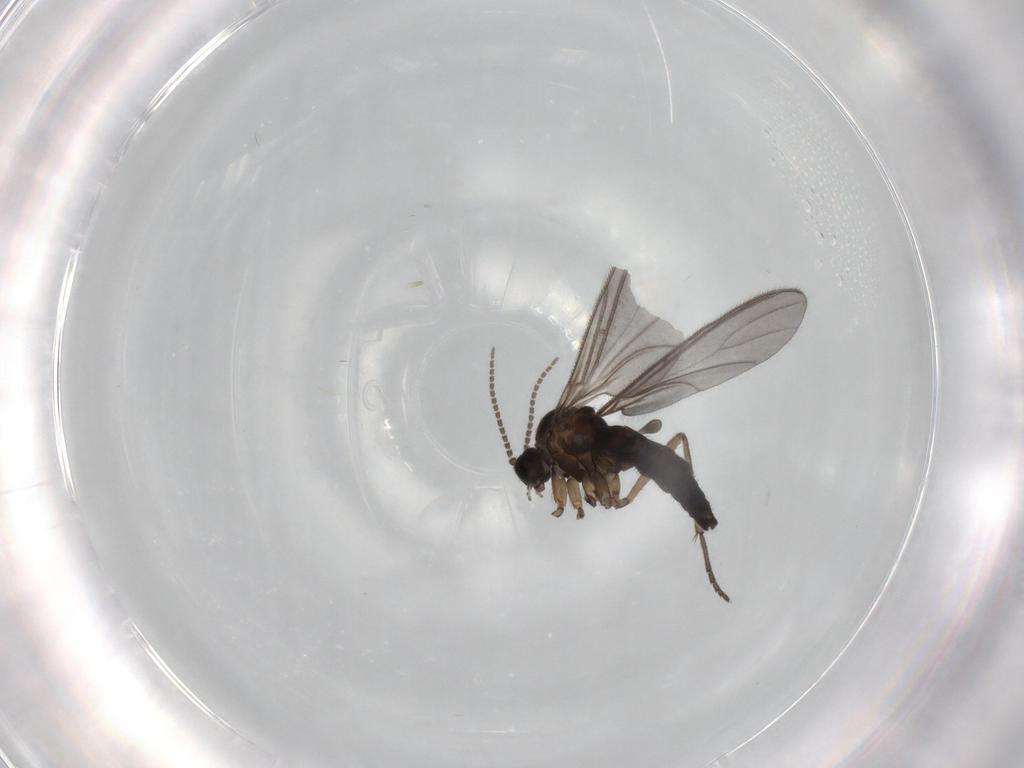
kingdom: Animalia
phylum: Arthropoda
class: Insecta
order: Diptera
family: Sciaridae
